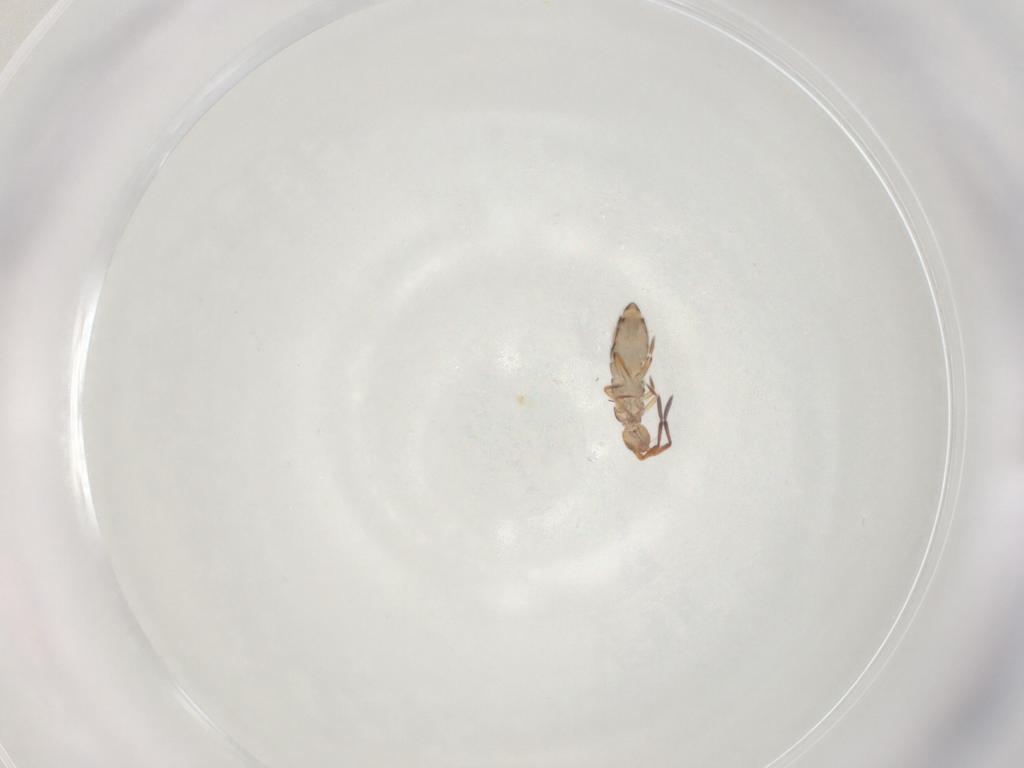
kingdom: Animalia
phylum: Arthropoda
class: Collembola
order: Entomobryomorpha
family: Entomobryidae
